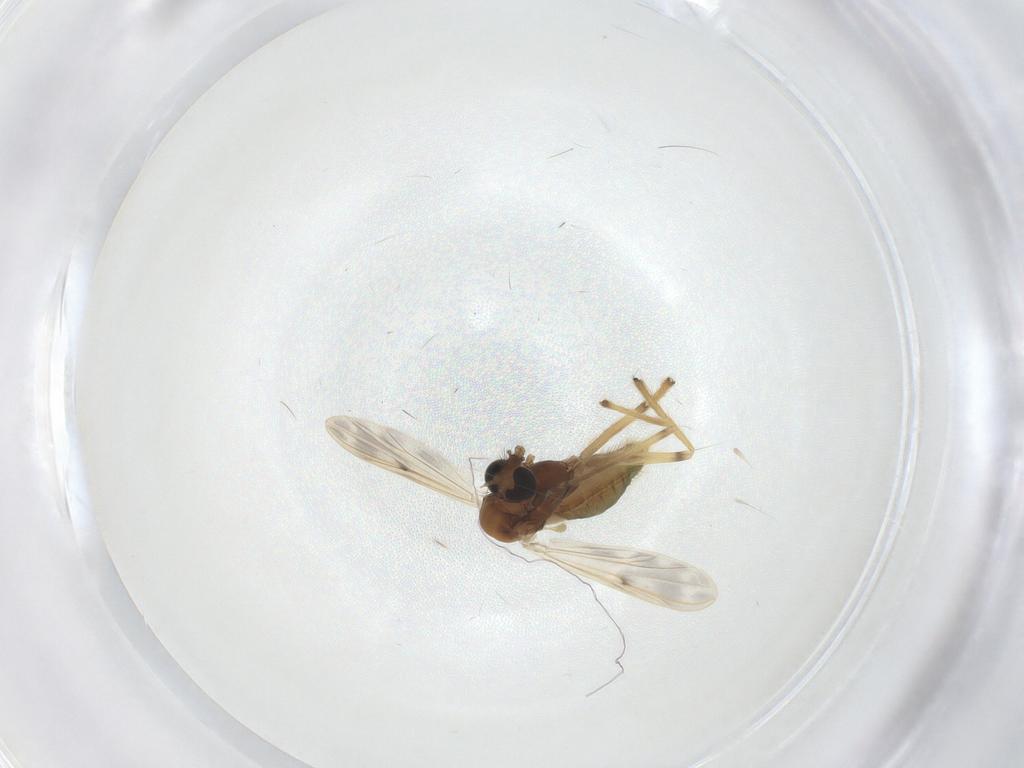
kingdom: Animalia
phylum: Arthropoda
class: Insecta
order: Diptera
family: Chironomidae
